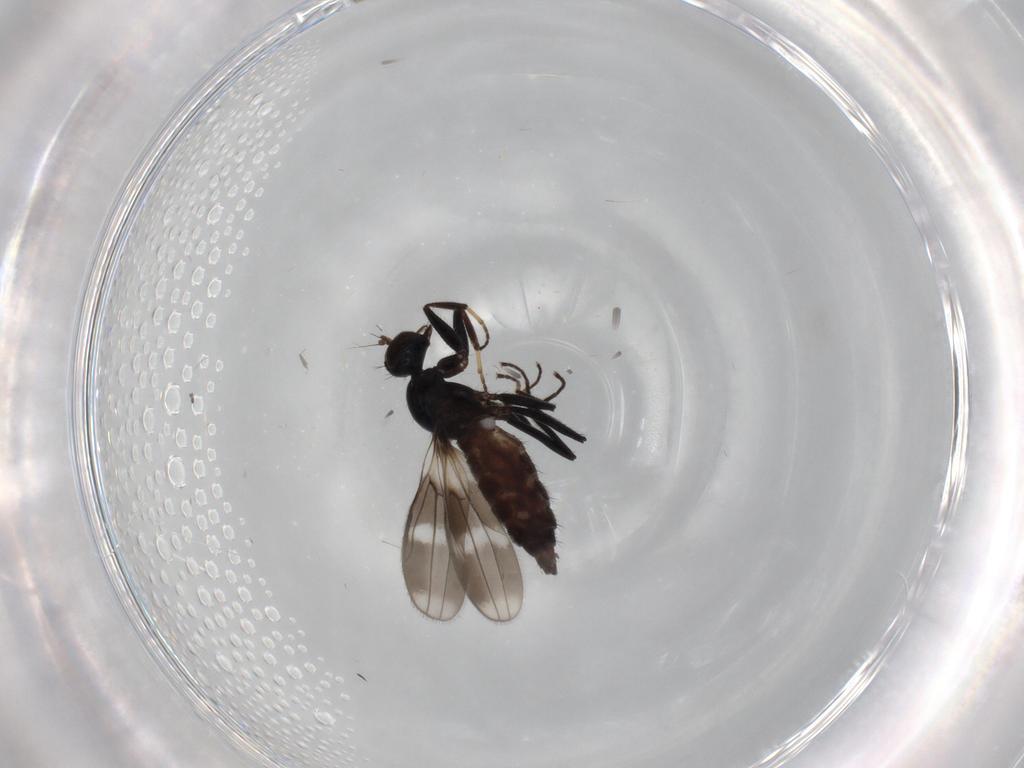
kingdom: Animalia
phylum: Arthropoda
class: Insecta
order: Diptera
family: Hybotidae
